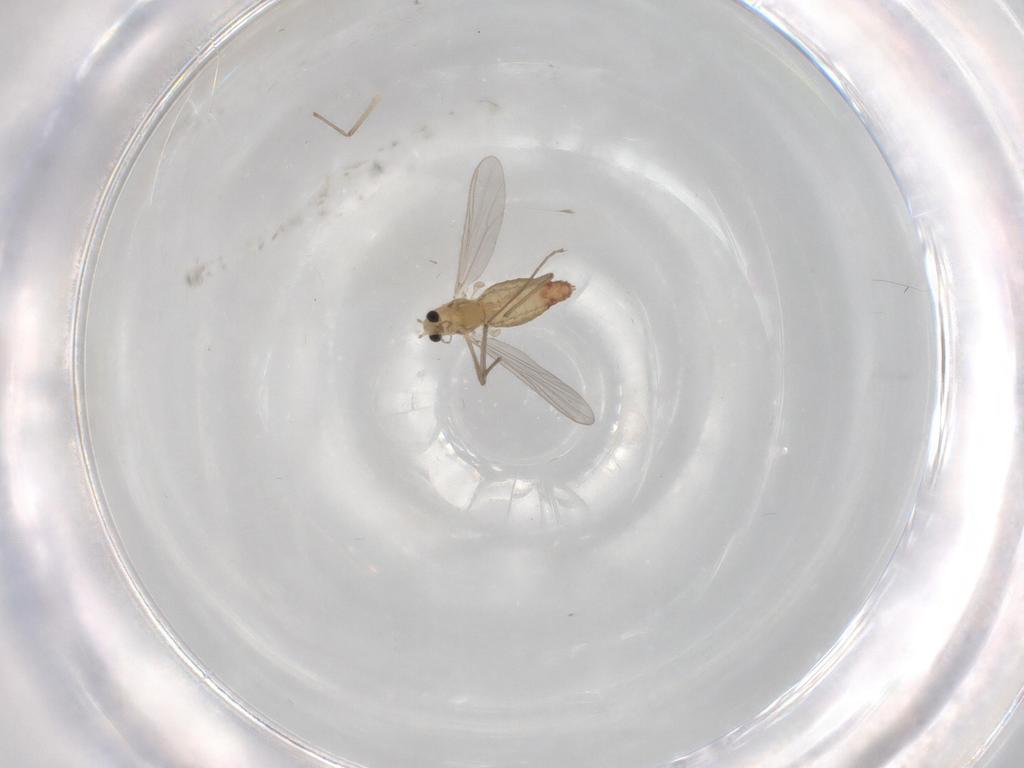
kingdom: Animalia
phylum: Arthropoda
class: Insecta
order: Diptera
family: Chironomidae
